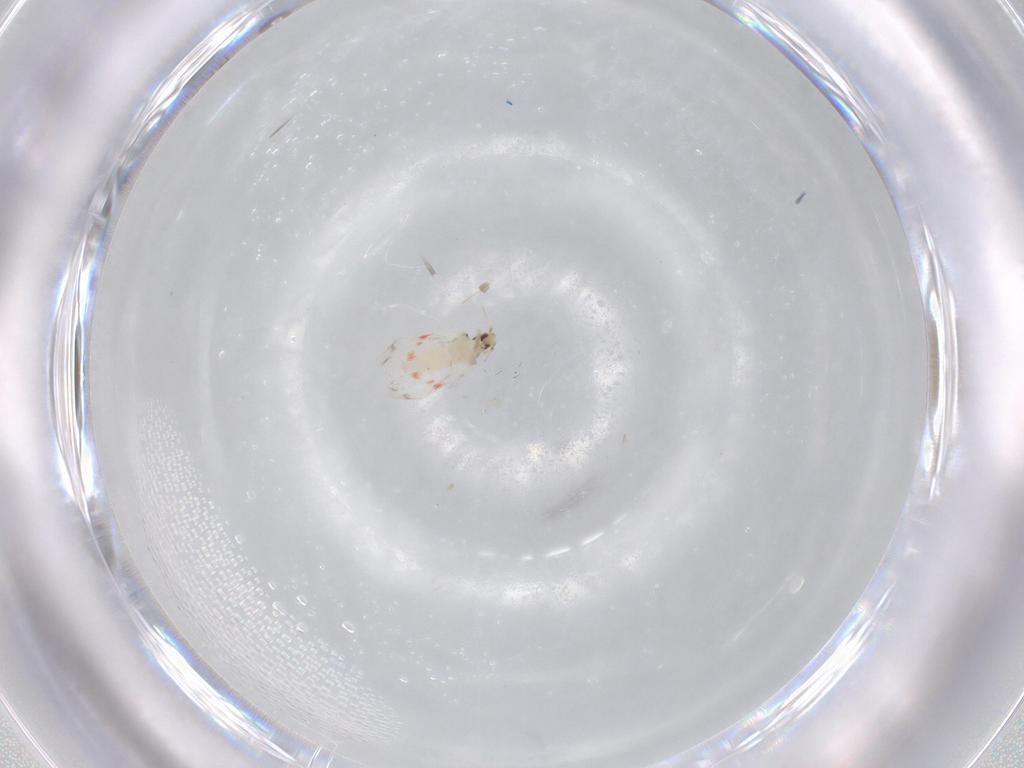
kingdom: Animalia
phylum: Arthropoda
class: Insecta
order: Hemiptera
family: Aleyrodidae
